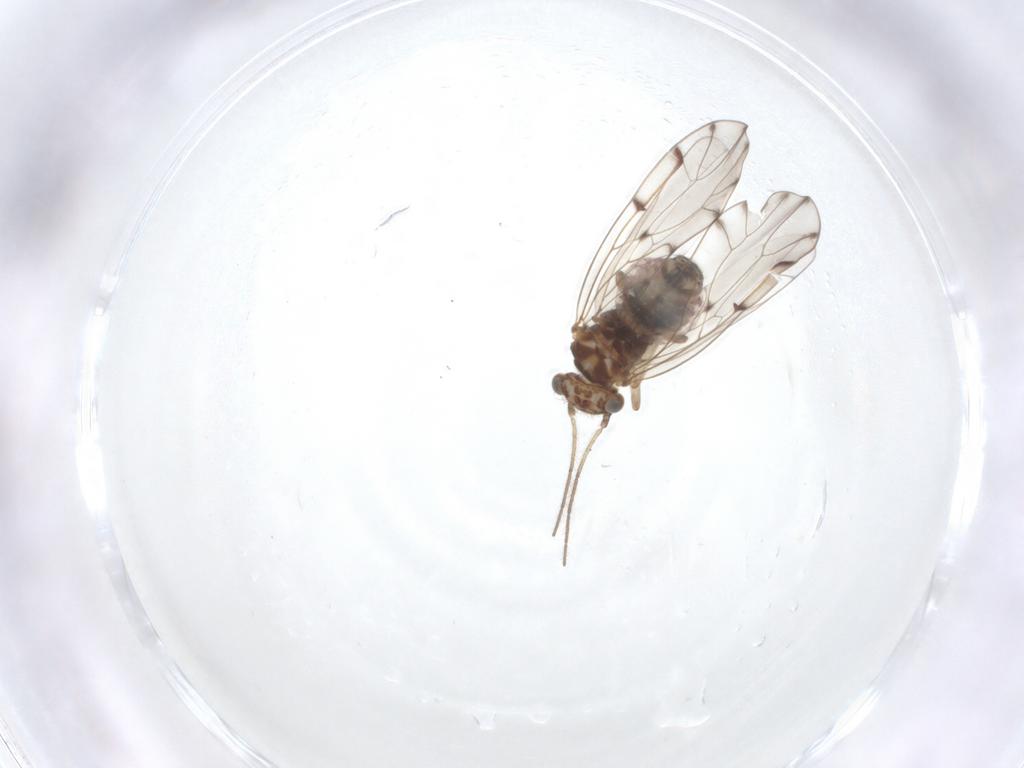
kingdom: Animalia
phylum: Arthropoda
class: Insecta
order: Psocodea
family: Ectopsocidae
